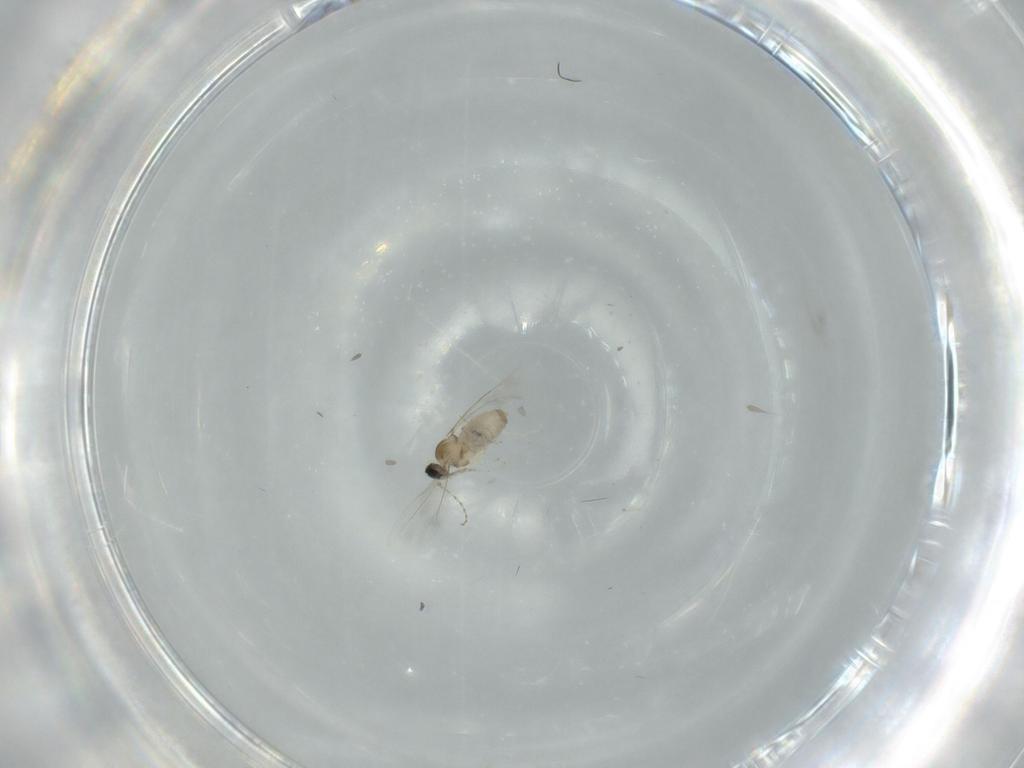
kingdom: Animalia
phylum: Arthropoda
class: Insecta
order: Diptera
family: Cecidomyiidae
